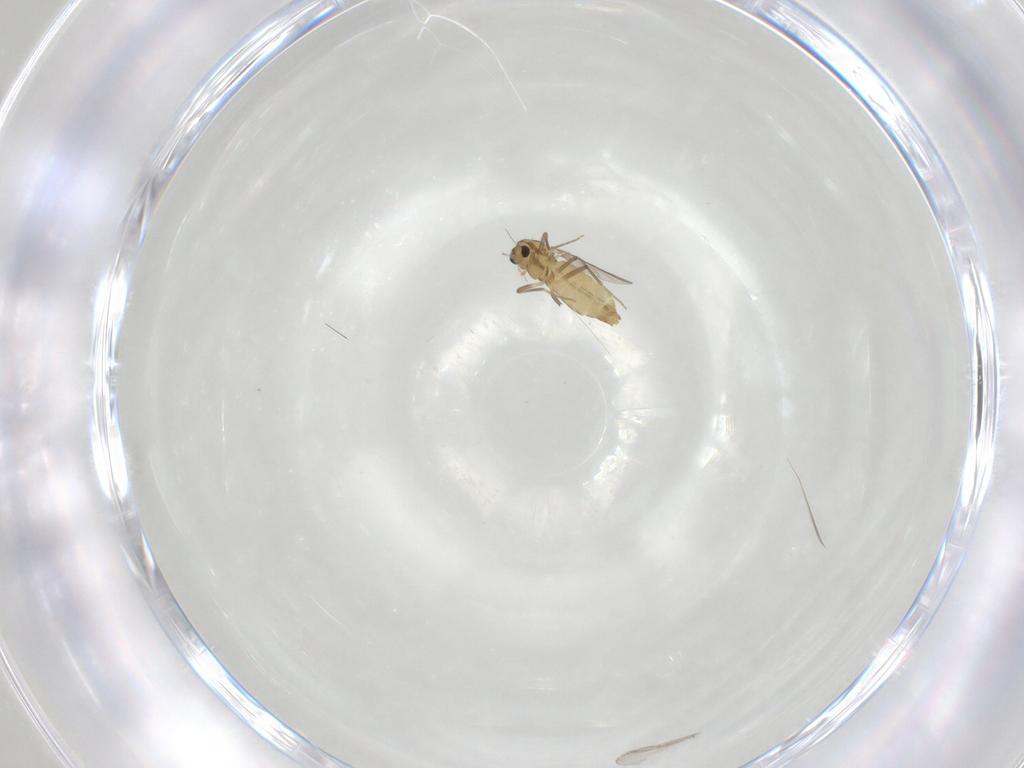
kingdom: Animalia
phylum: Arthropoda
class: Insecta
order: Diptera
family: Chironomidae
